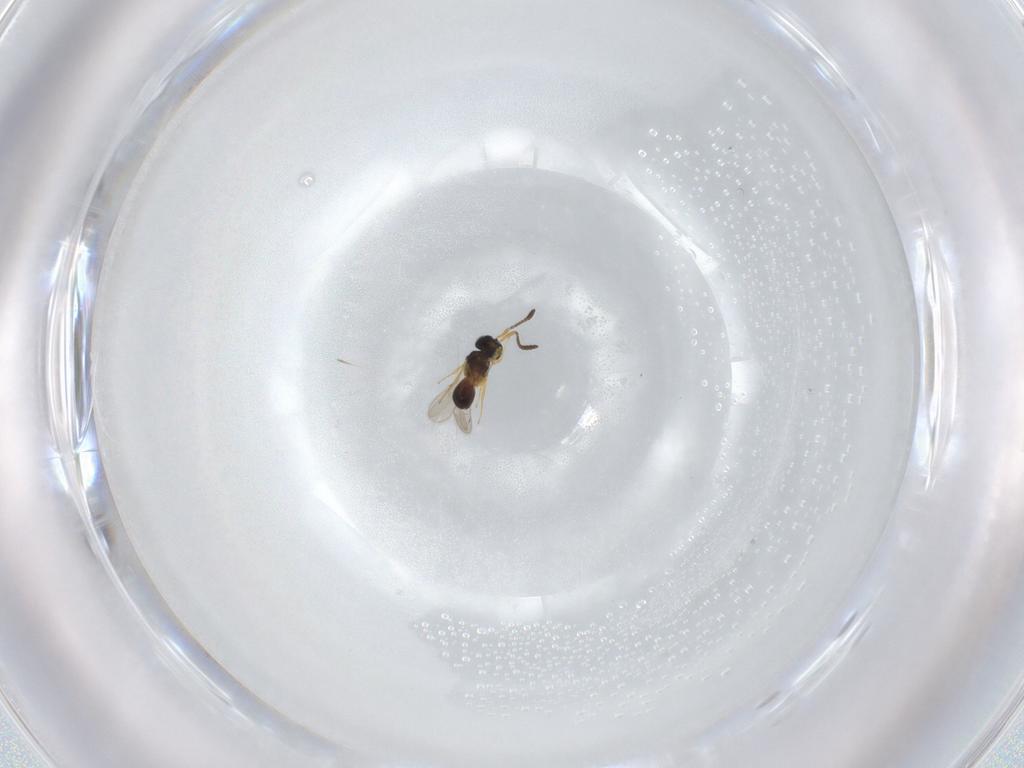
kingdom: Animalia
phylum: Arthropoda
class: Insecta
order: Hymenoptera
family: Scelionidae
